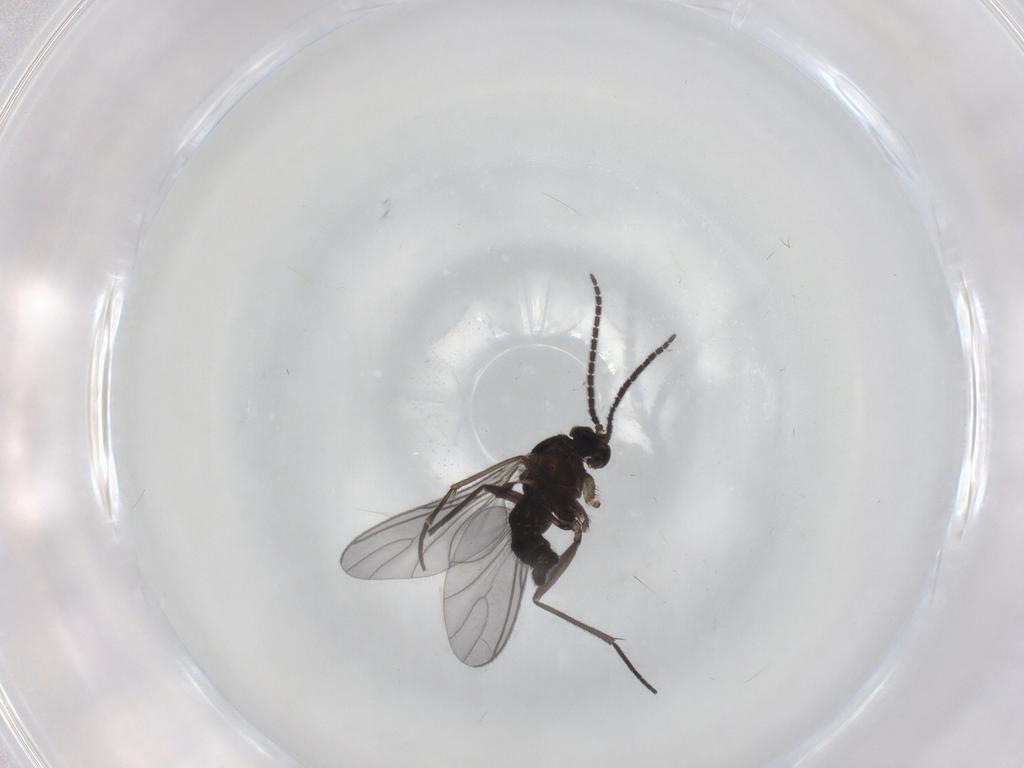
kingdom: Animalia
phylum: Arthropoda
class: Insecta
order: Diptera
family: Sciaridae
